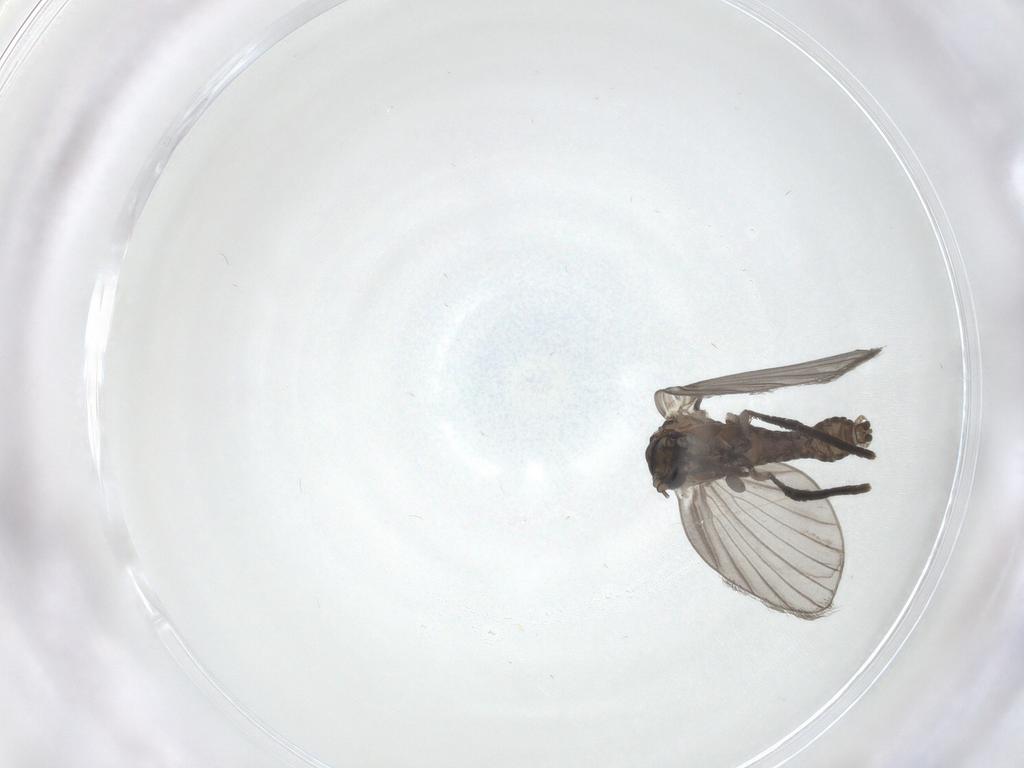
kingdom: Animalia
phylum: Arthropoda
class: Insecta
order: Diptera
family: Psychodidae
